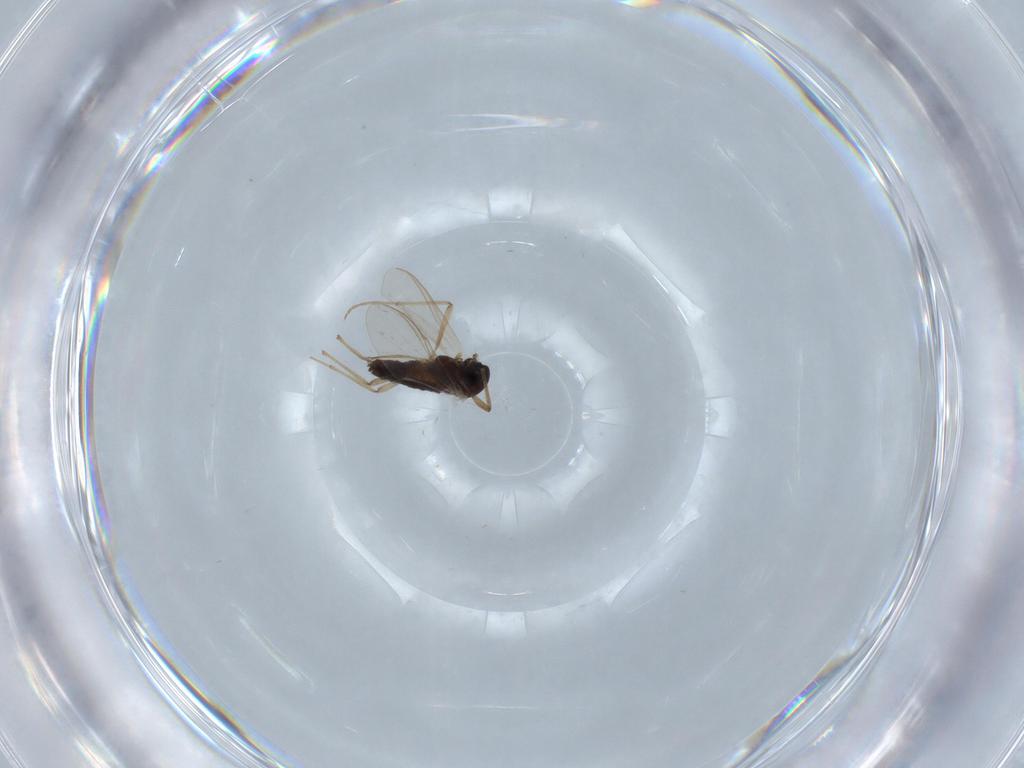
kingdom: Animalia
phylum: Arthropoda
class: Insecta
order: Diptera
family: Chironomidae
